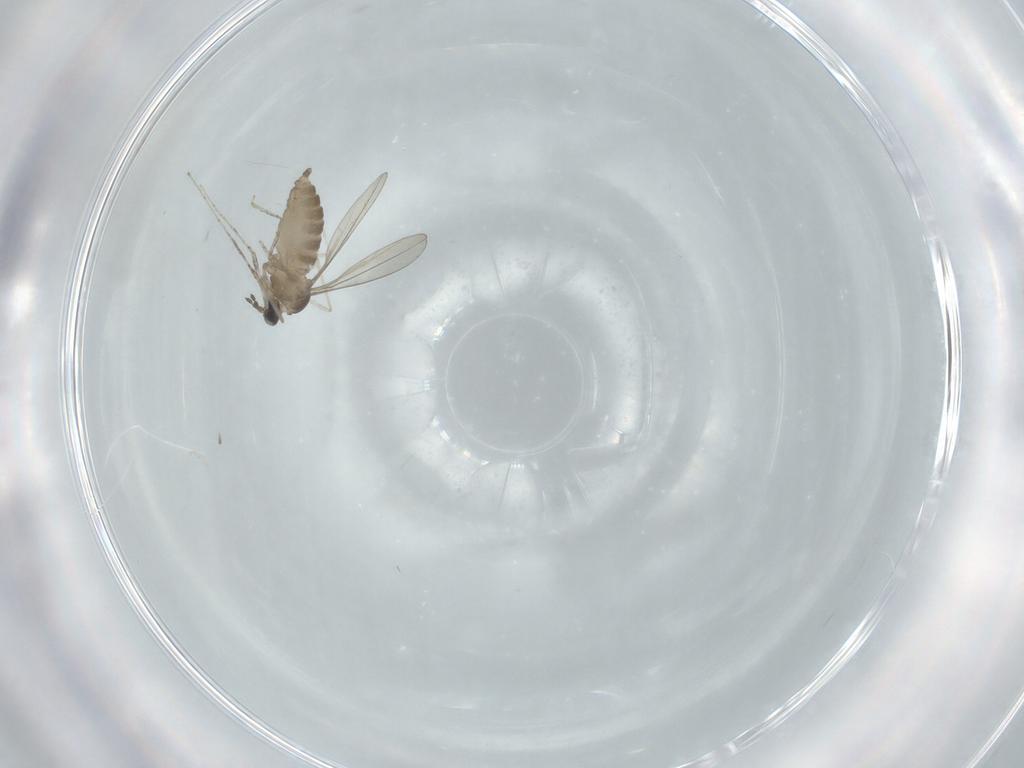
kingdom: Animalia
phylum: Arthropoda
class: Insecta
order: Diptera
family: Cecidomyiidae
